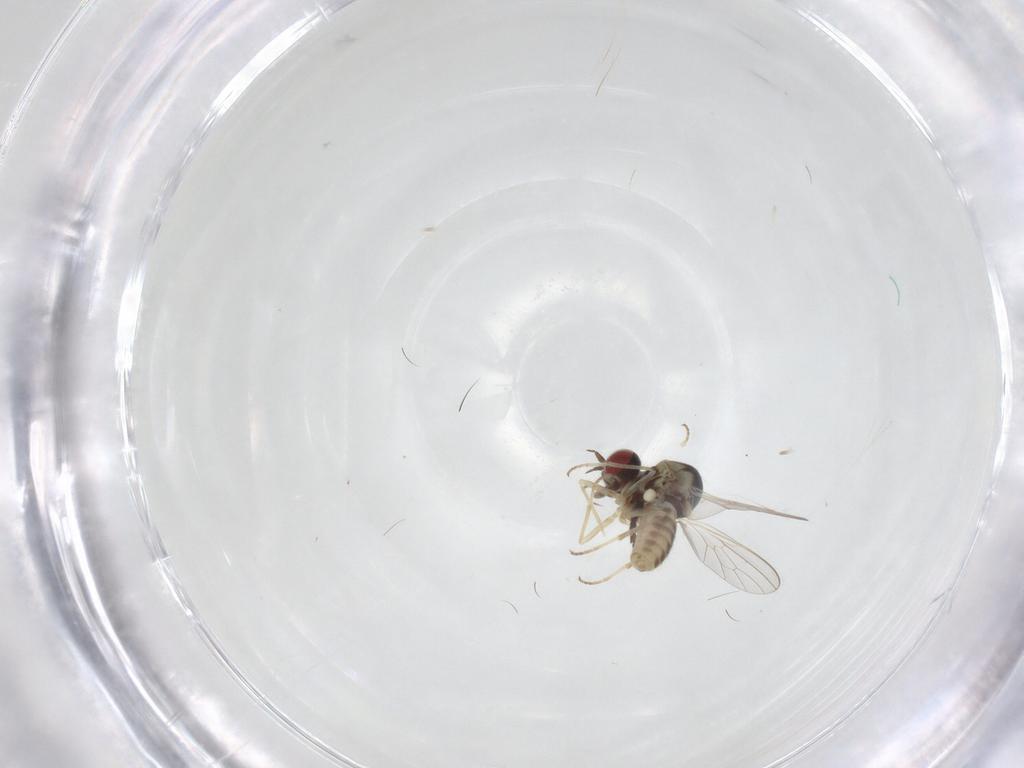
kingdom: Animalia
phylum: Arthropoda
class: Insecta
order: Diptera
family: Bombyliidae
